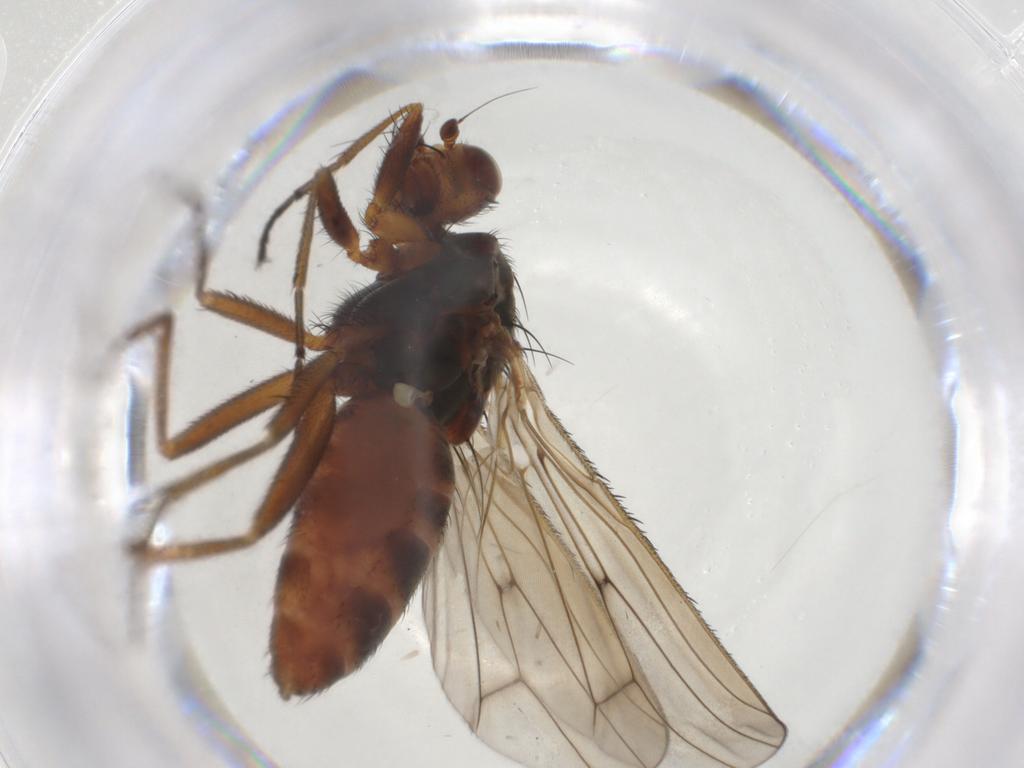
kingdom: Animalia
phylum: Arthropoda
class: Insecta
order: Diptera
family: Heleomyzidae
